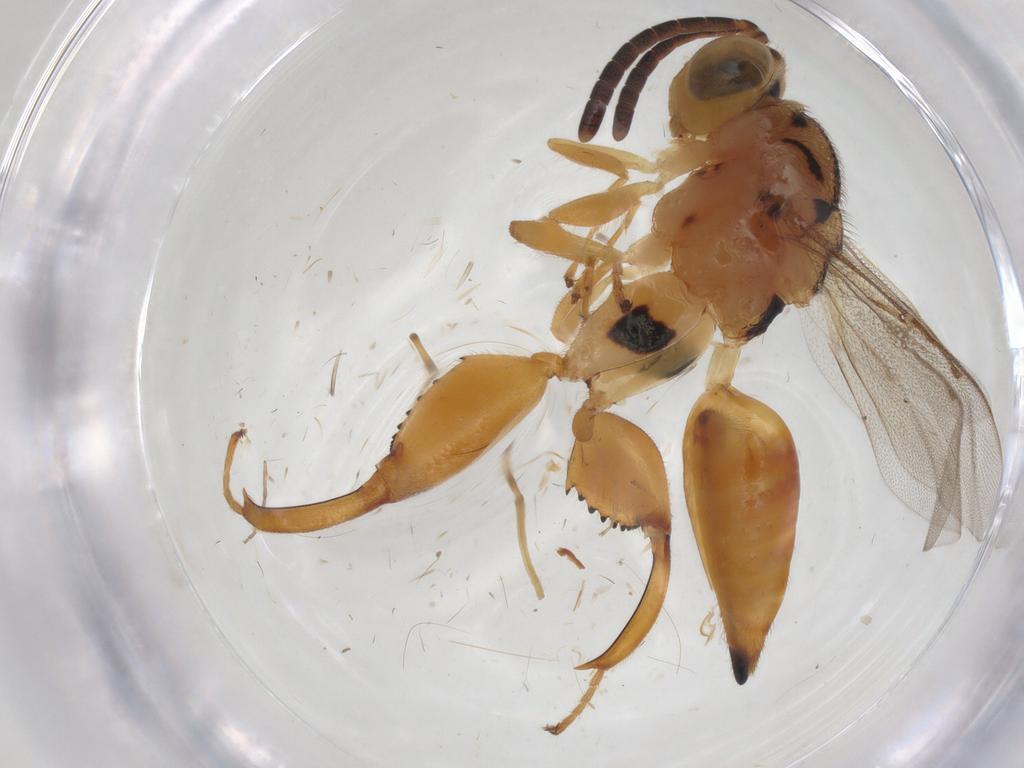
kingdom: Animalia
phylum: Arthropoda
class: Insecta
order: Hymenoptera
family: Chalcididae
